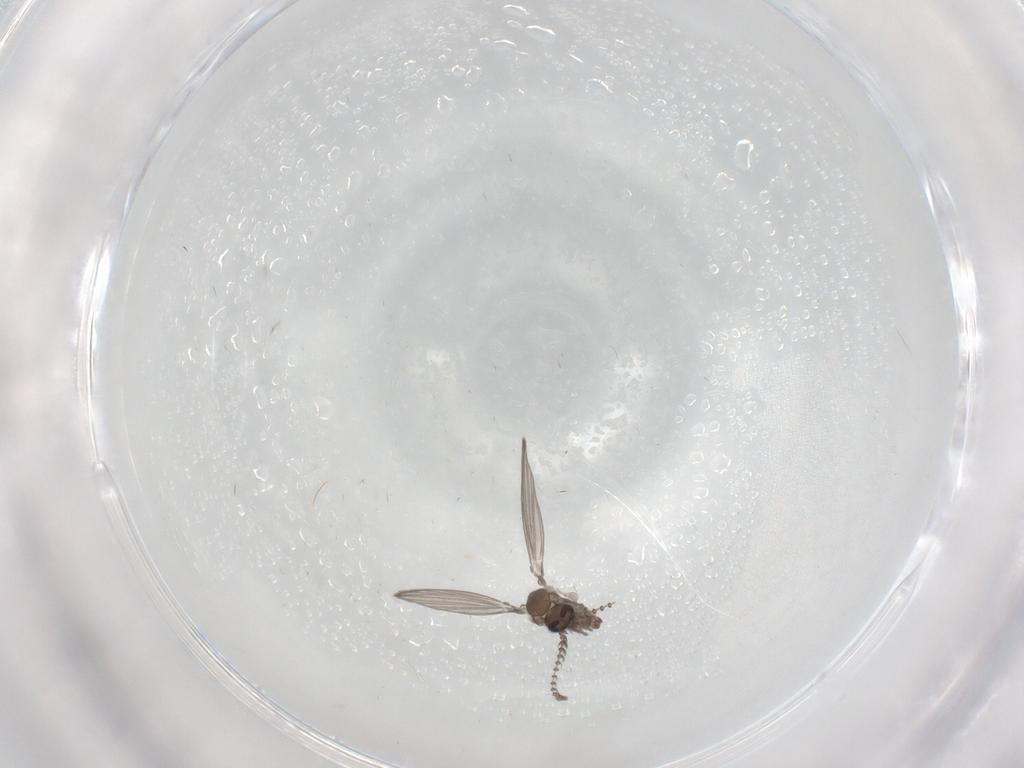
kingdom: Animalia
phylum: Arthropoda
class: Insecta
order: Diptera
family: Psychodidae
